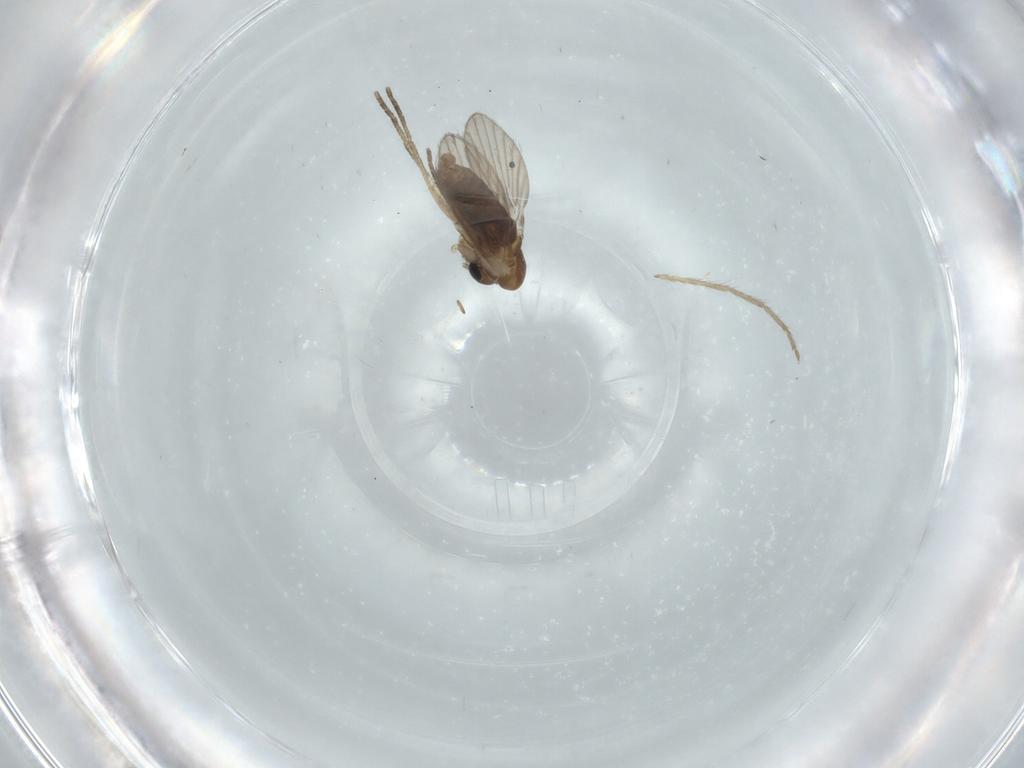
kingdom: Animalia
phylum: Arthropoda
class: Insecta
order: Diptera
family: Chironomidae
